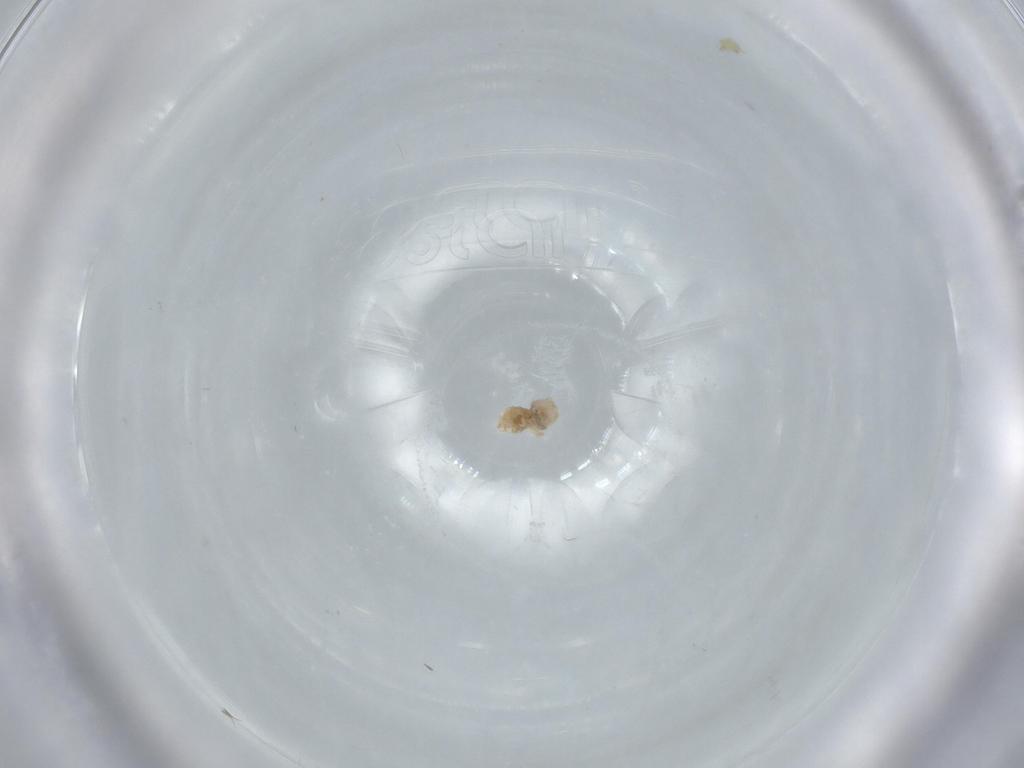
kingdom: Animalia
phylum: Arthropoda
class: Insecta
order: Psocodea
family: Caeciliusidae
